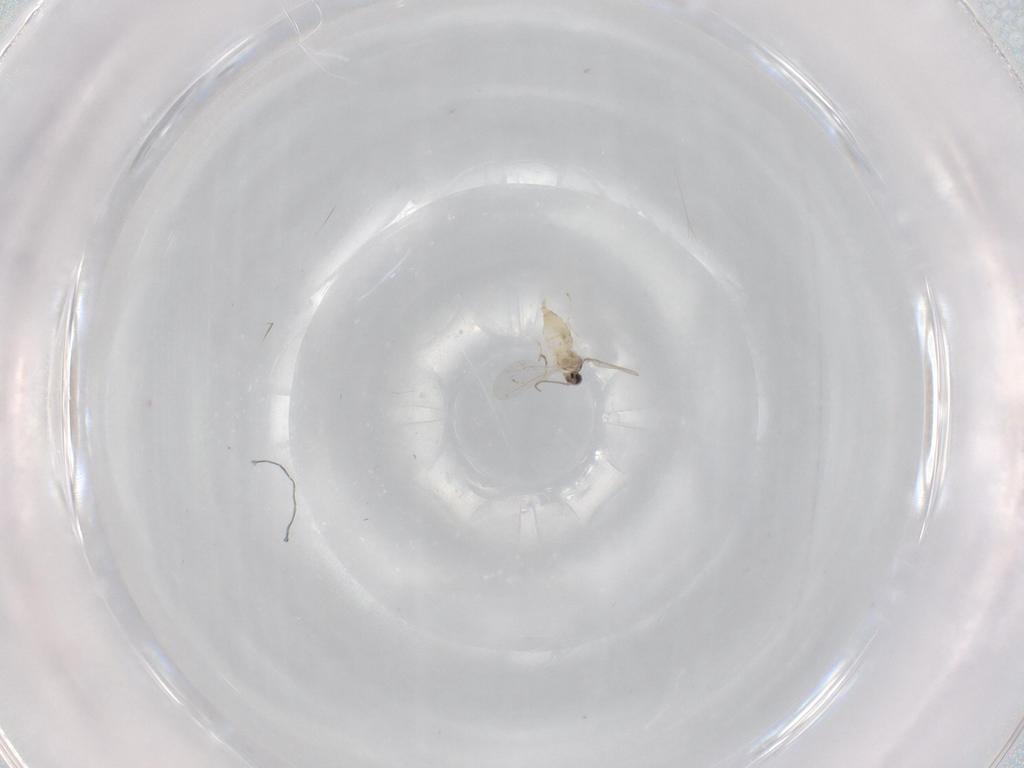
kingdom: Animalia
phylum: Arthropoda
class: Insecta
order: Diptera
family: Cecidomyiidae
